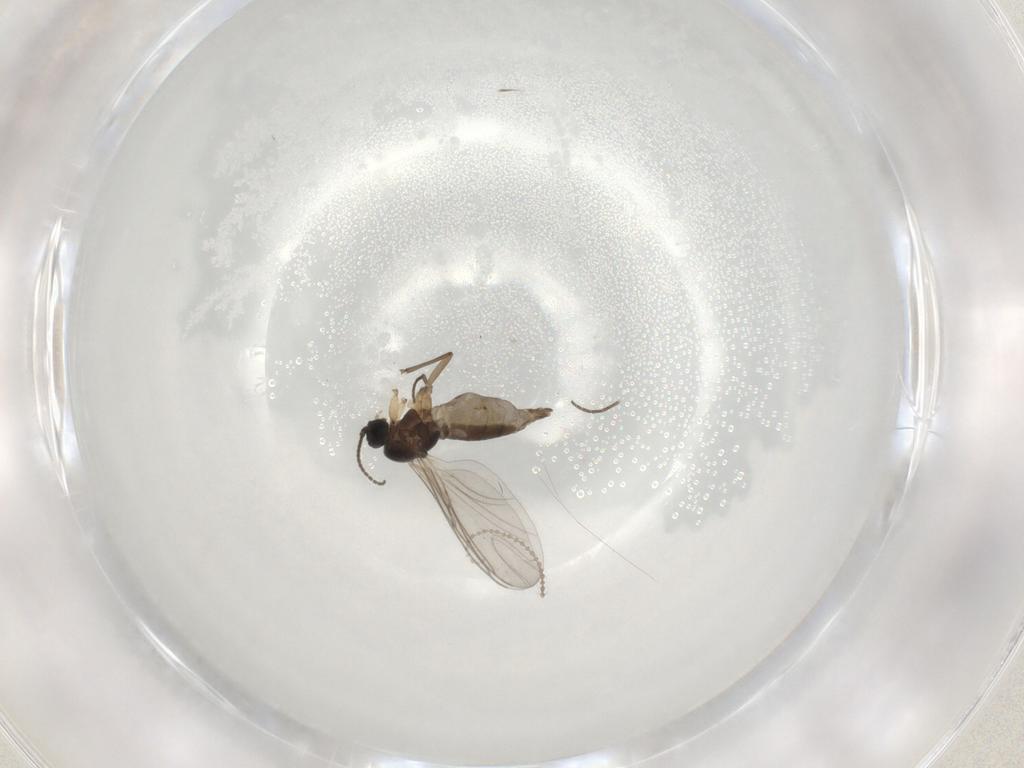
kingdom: Animalia
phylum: Arthropoda
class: Insecta
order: Diptera
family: Sciaridae
